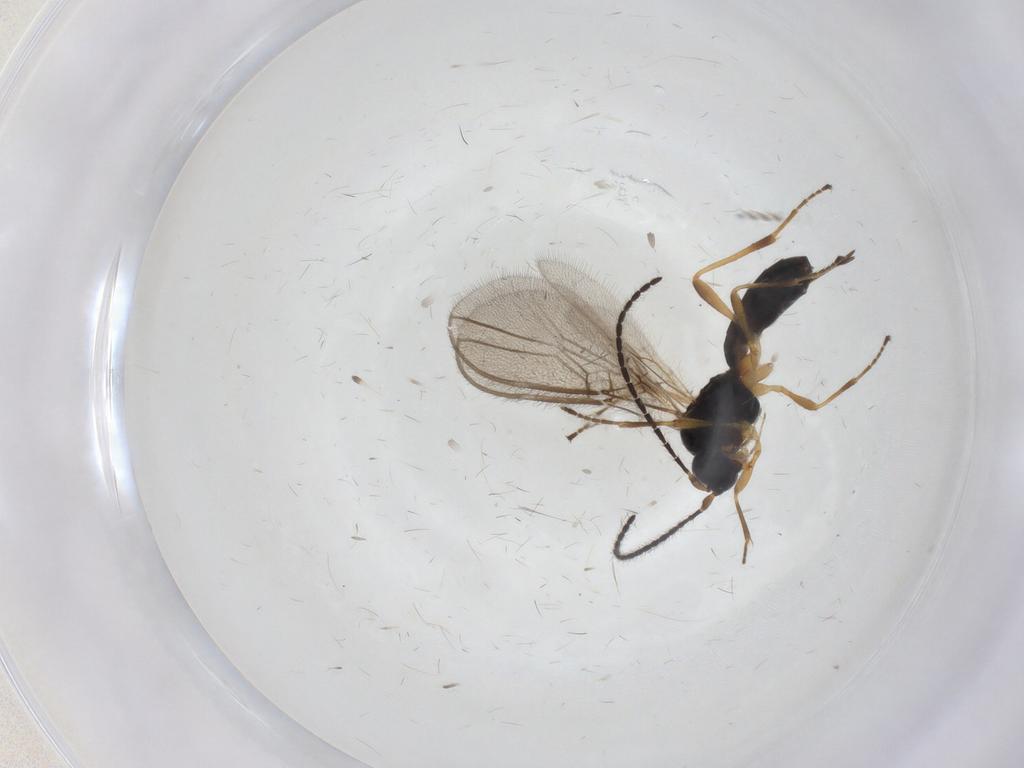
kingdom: Animalia
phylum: Arthropoda
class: Insecta
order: Hymenoptera
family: Braconidae
